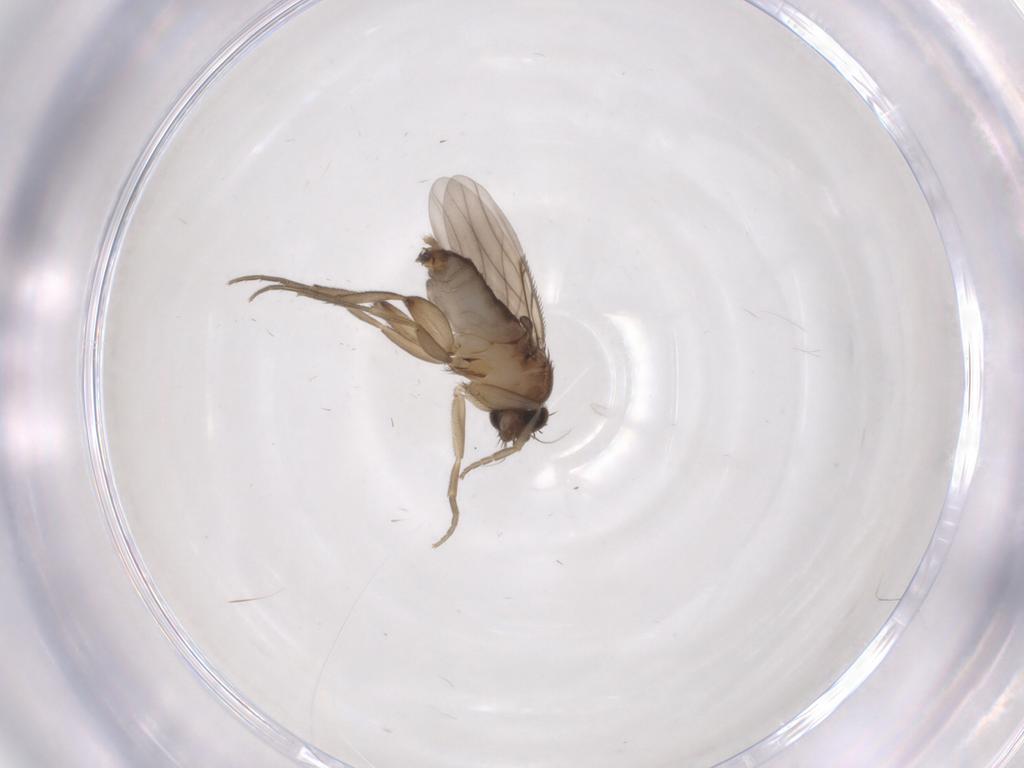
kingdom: Animalia
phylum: Arthropoda
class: Insecta
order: Diptera
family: Phoridae
